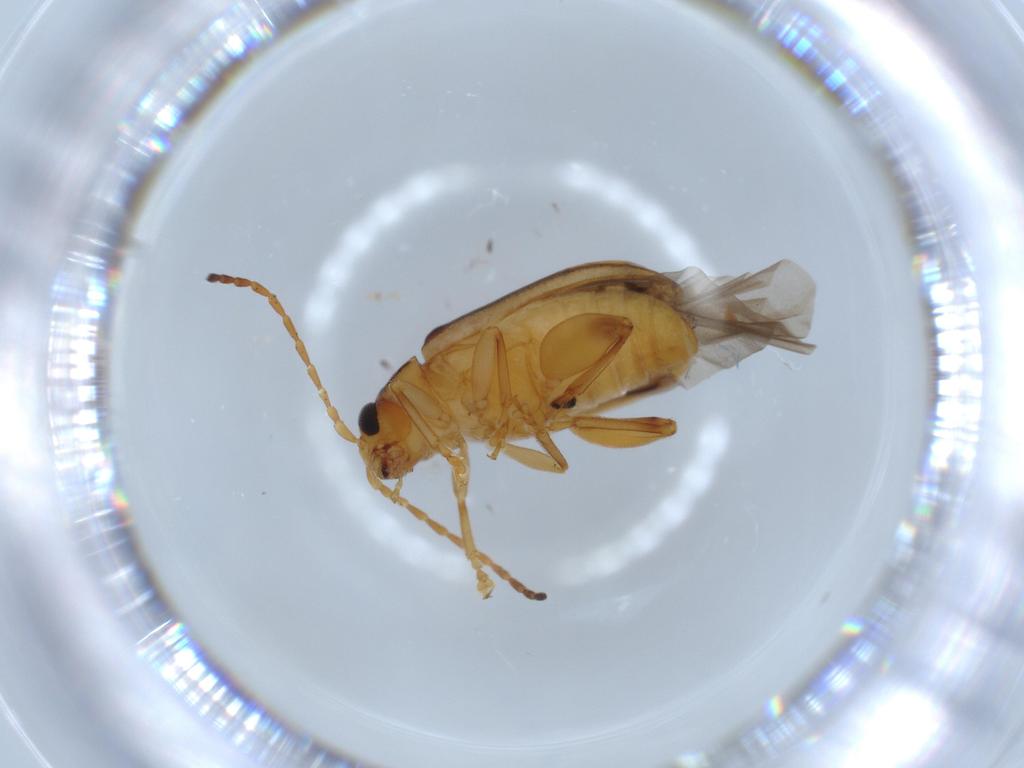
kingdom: Animalia
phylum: Arthropoda
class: Insecta
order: Coleoptera
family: Chrysomelidae
